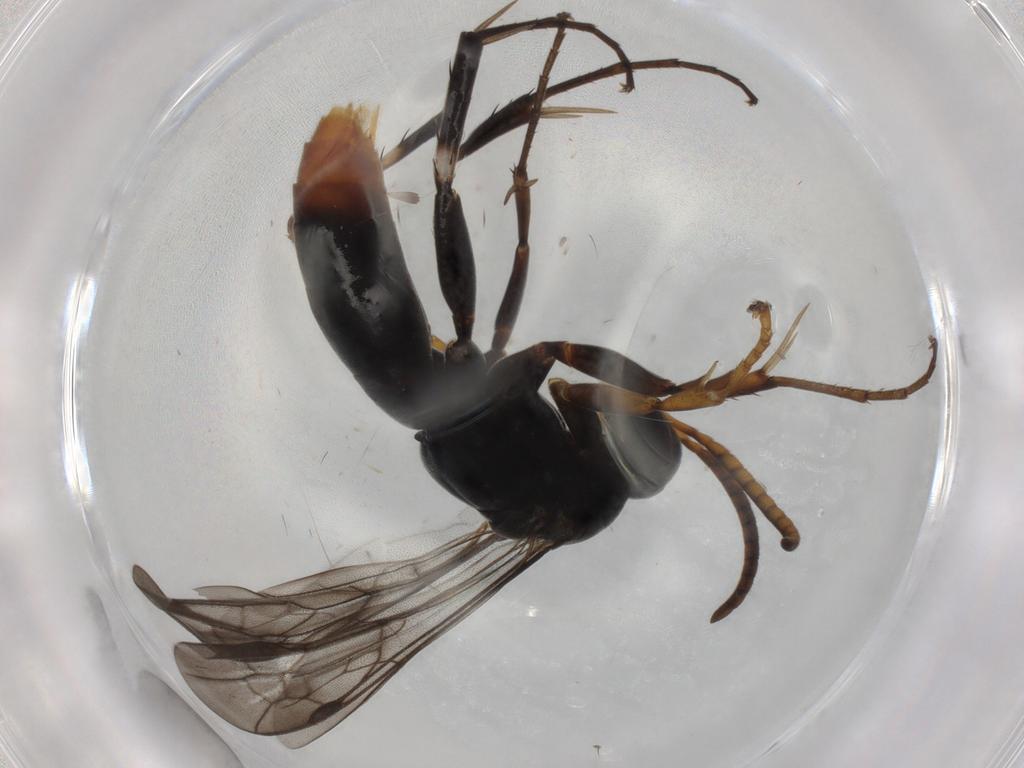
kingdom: Animalia
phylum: Arthropoda
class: Insecta
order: Hymenoptera
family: Pompilidae
